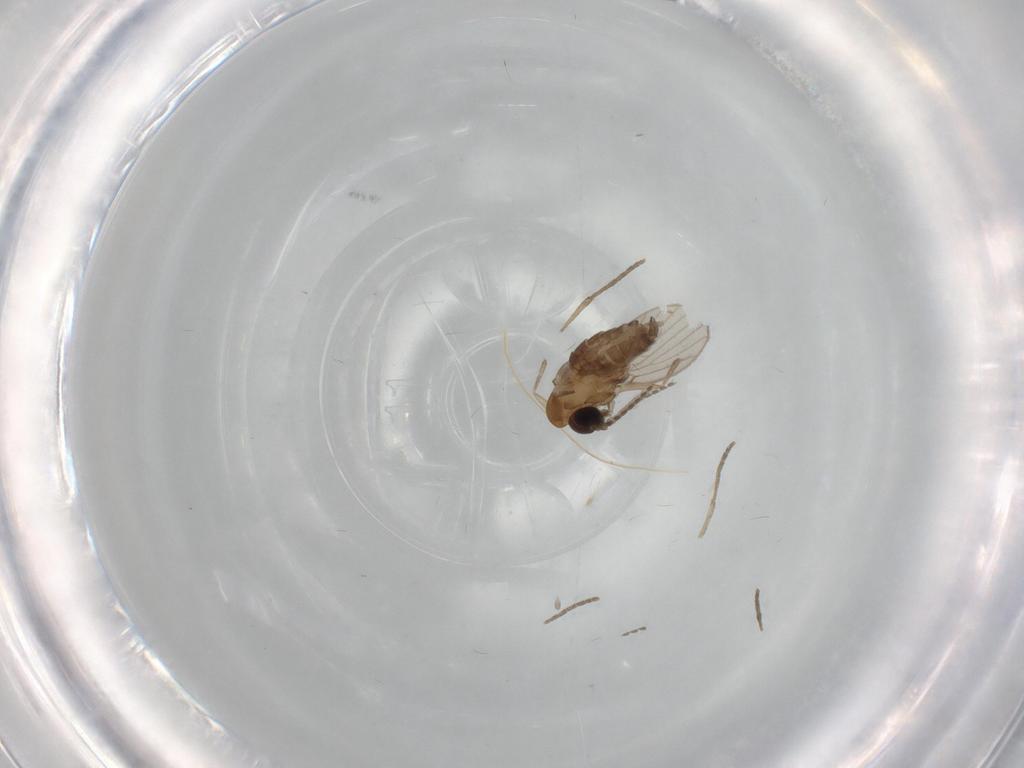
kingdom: Animalia
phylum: Arthropoda
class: Insecta
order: Diptera
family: Psychodidae
